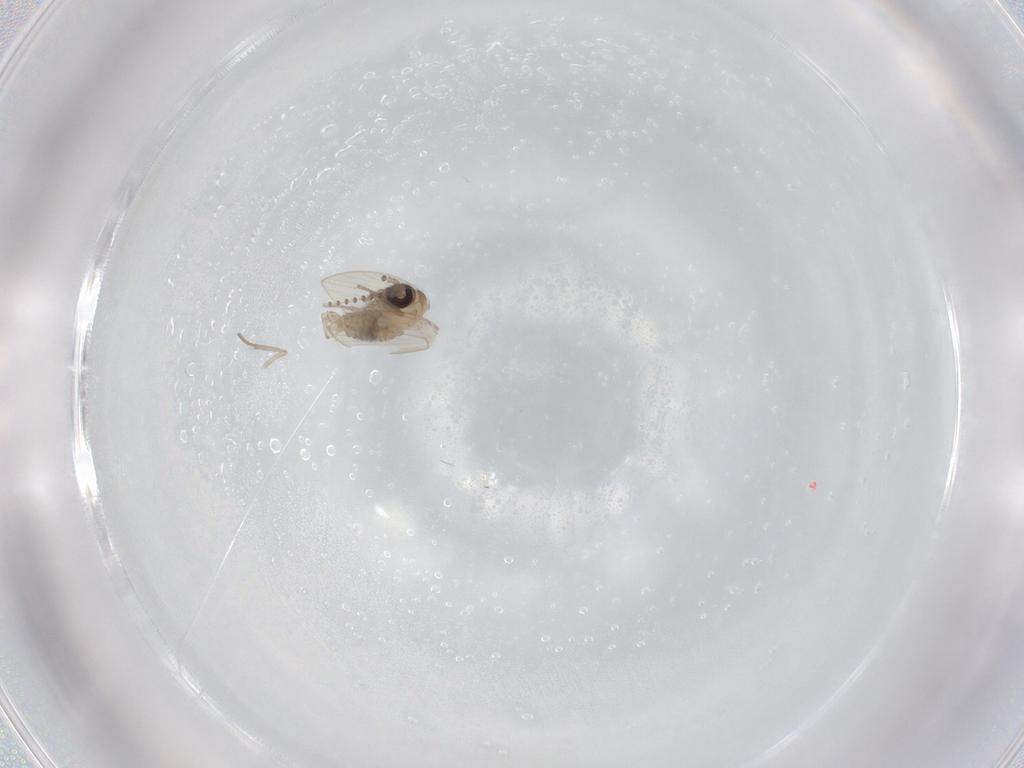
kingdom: Animalia
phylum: Arthropoda
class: Insecta
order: Diptera
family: Psychodidae
